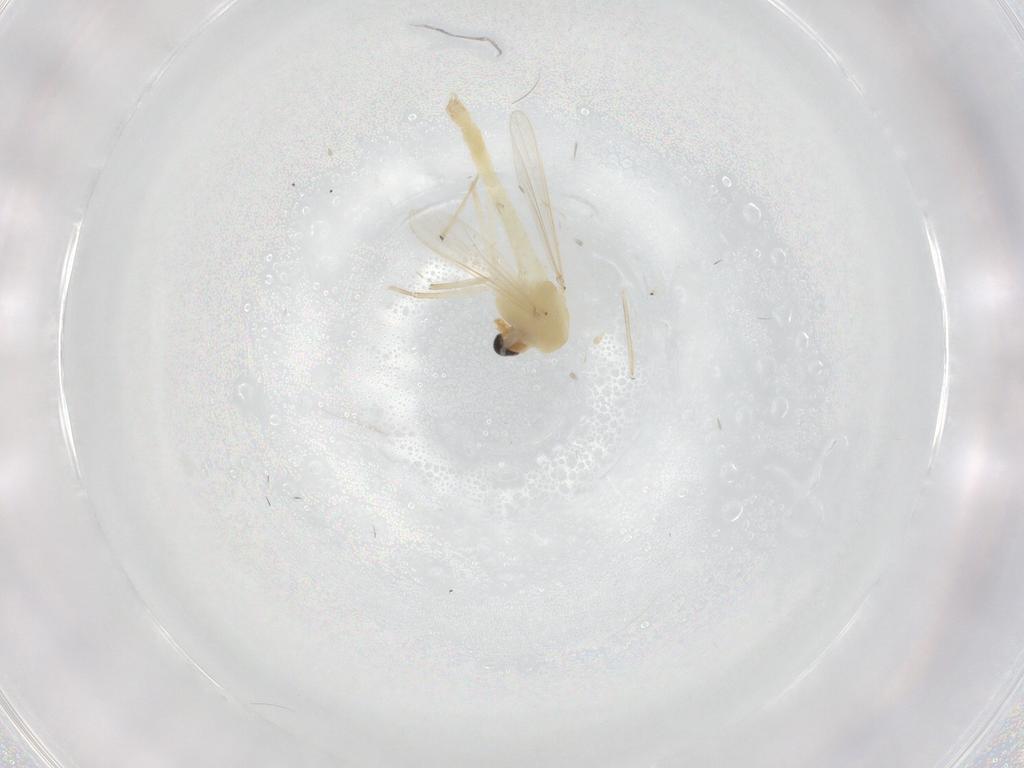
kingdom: Animalia
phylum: Arthropoda
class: Insecta
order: Diptera
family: Chironomidae
